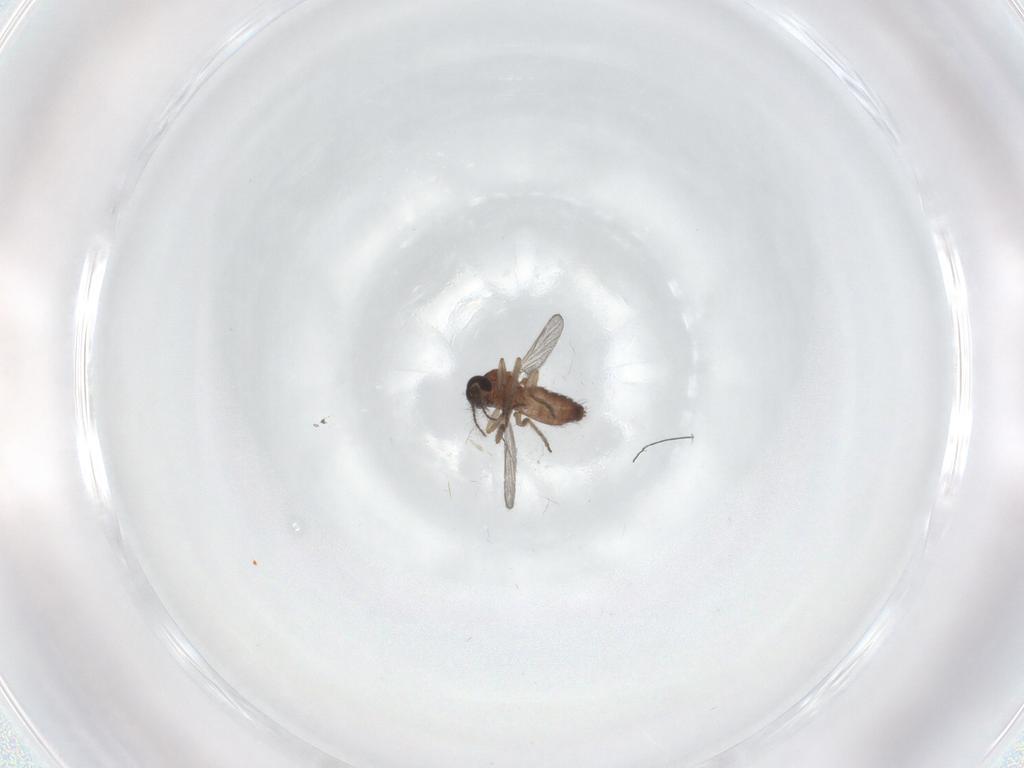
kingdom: Animalia
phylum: Arthropoda
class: Insecta
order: Diptera
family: Ceratopogonidae
